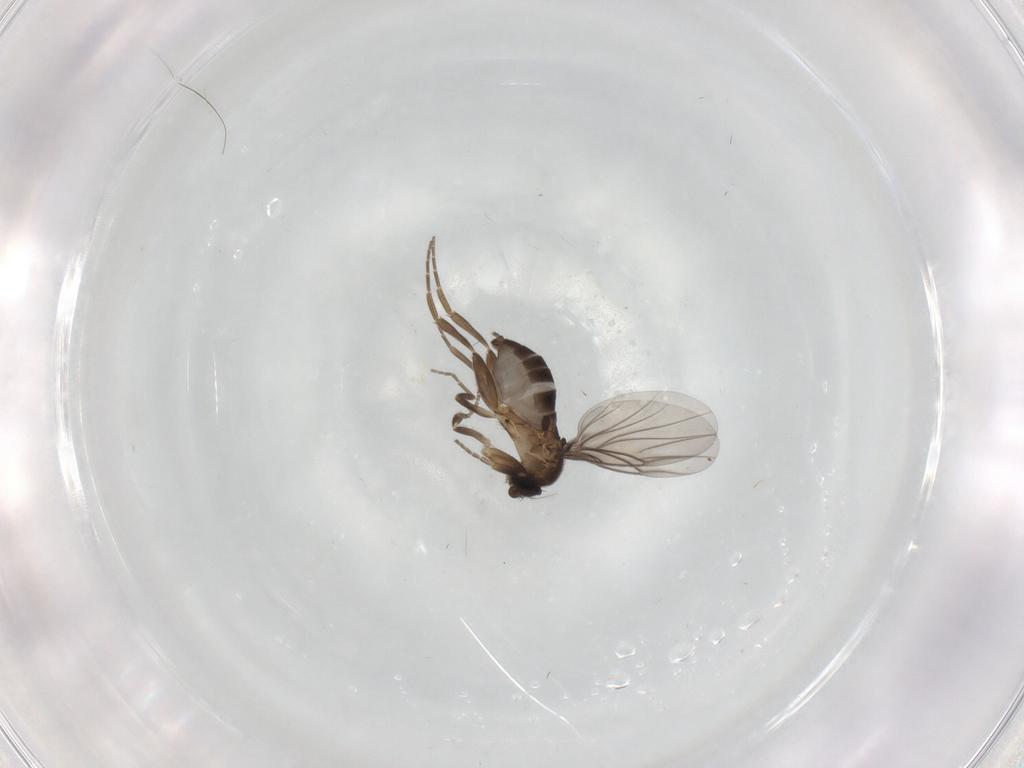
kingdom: Animalia
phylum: Arthropoda
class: Insecta
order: Diptera
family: Phoridae
